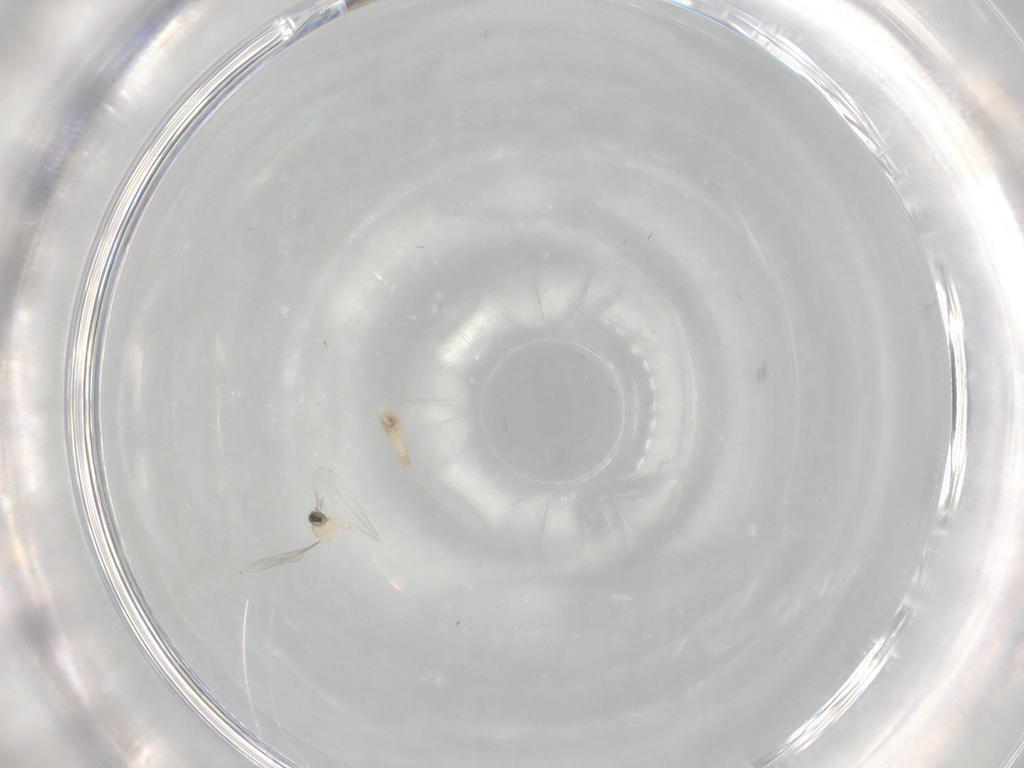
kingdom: Animalia
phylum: Arthropoda
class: Insecta
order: Diptera
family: Cecidomyiidae
